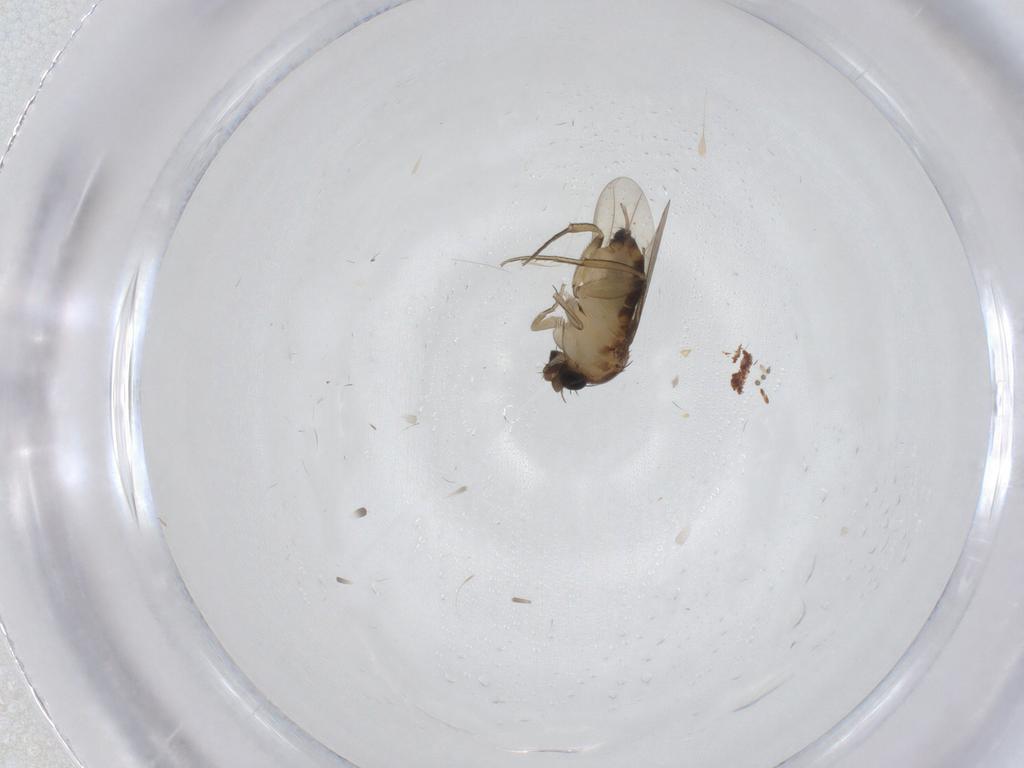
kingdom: Animalia
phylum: Arthropoda
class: Insecta
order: Diptera
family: Phoridae
